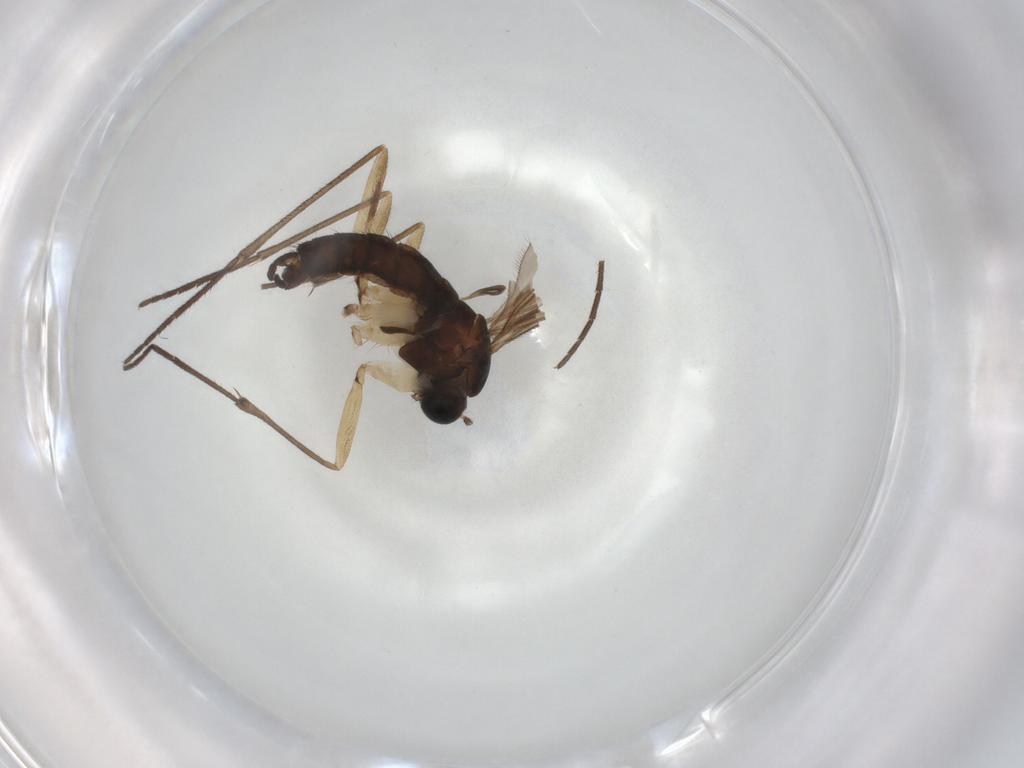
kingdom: Animalia
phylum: Arthropoda
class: Insecta
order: Diptera
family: Sciaridae
